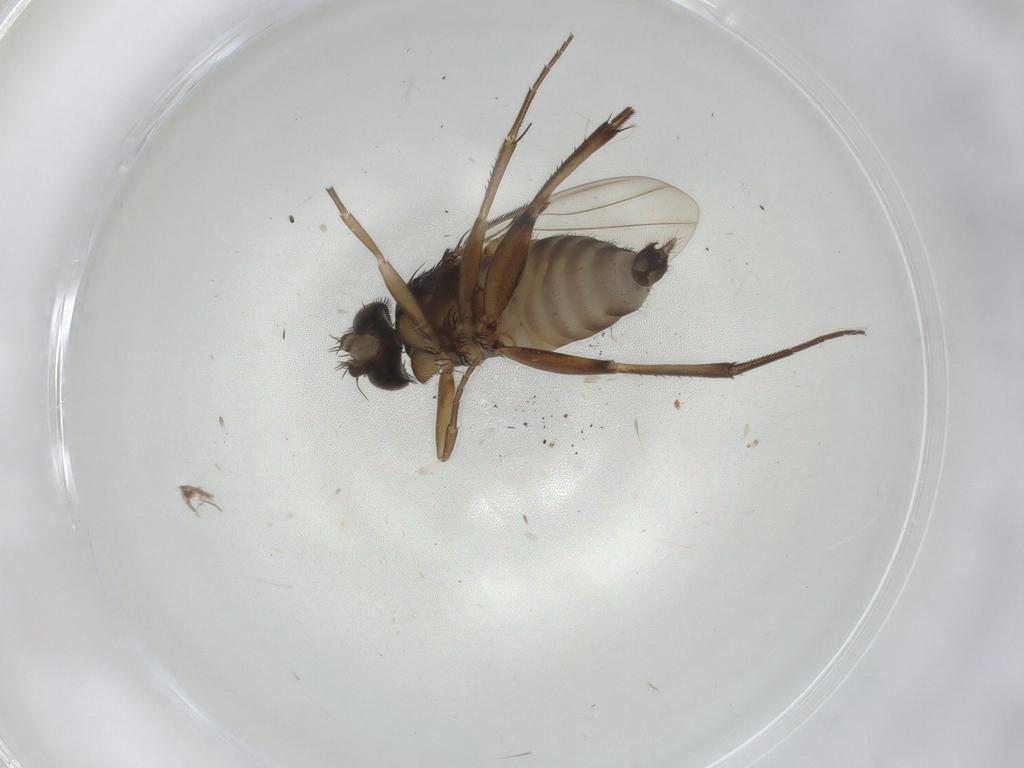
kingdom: Animalia
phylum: Arthropoda
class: Insecta
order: Diptera
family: Phoridae
